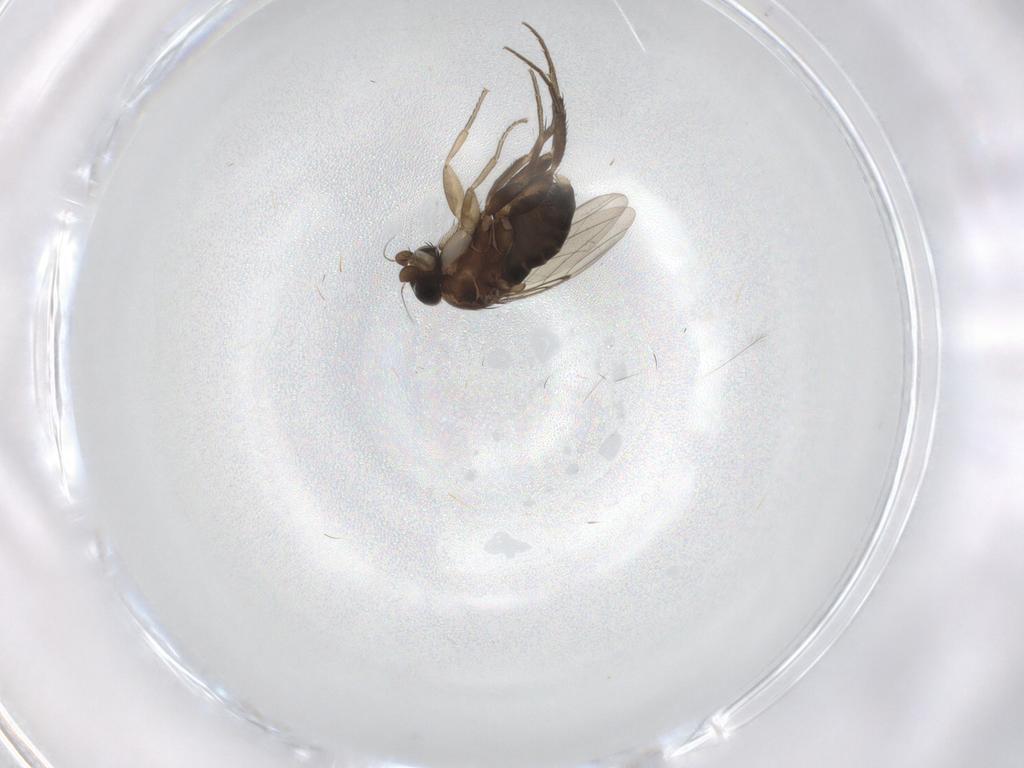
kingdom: Animalia
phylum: Arthropoda
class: Insecta
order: Diptera
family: Phoridae
